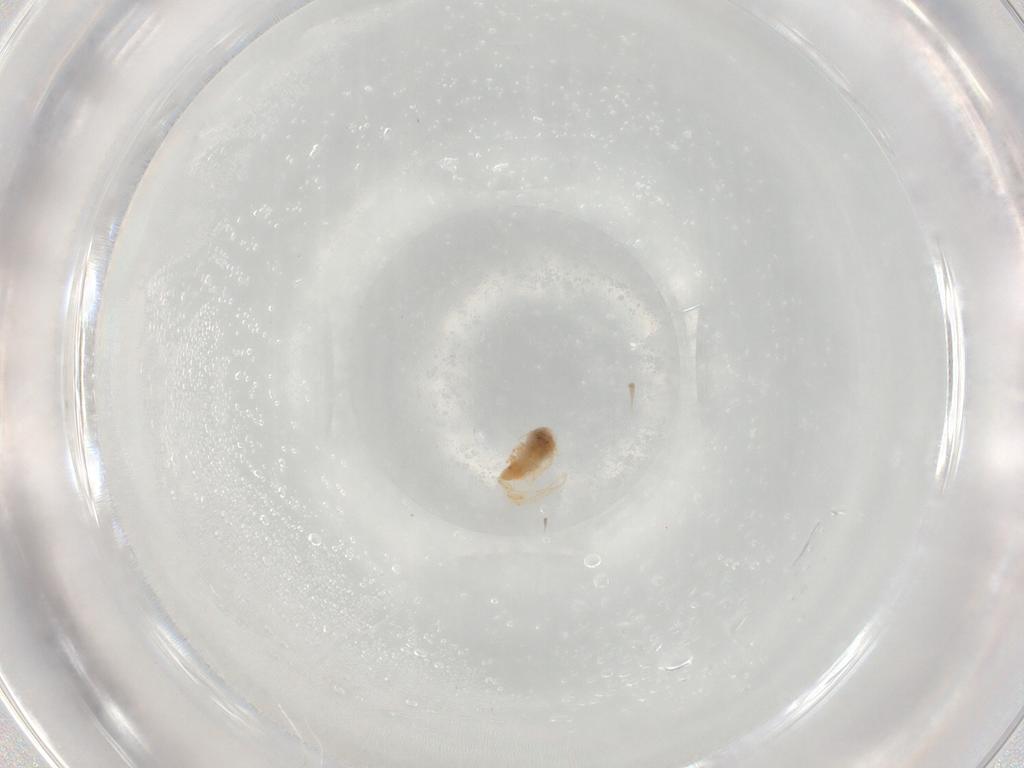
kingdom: Animalia
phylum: Arthropoda
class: Insecta
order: Hemiptera
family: Aleyrodidae
